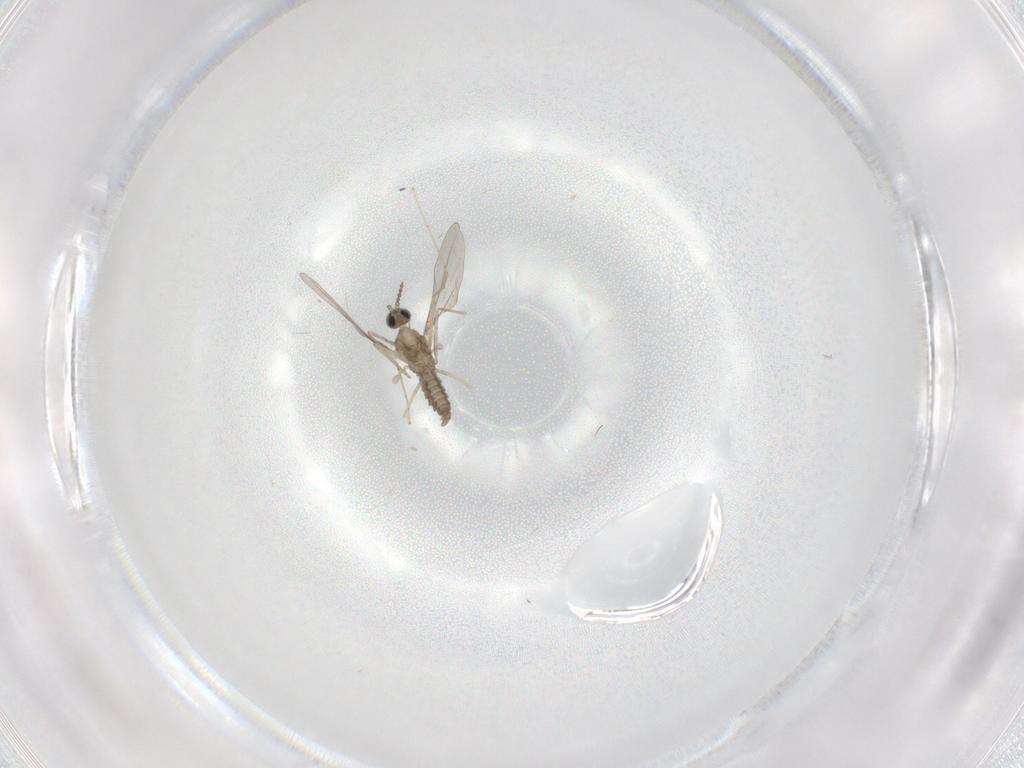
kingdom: Animalia
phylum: Arthropoda
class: Insecta
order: Diptera
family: Cecidomyiidae
